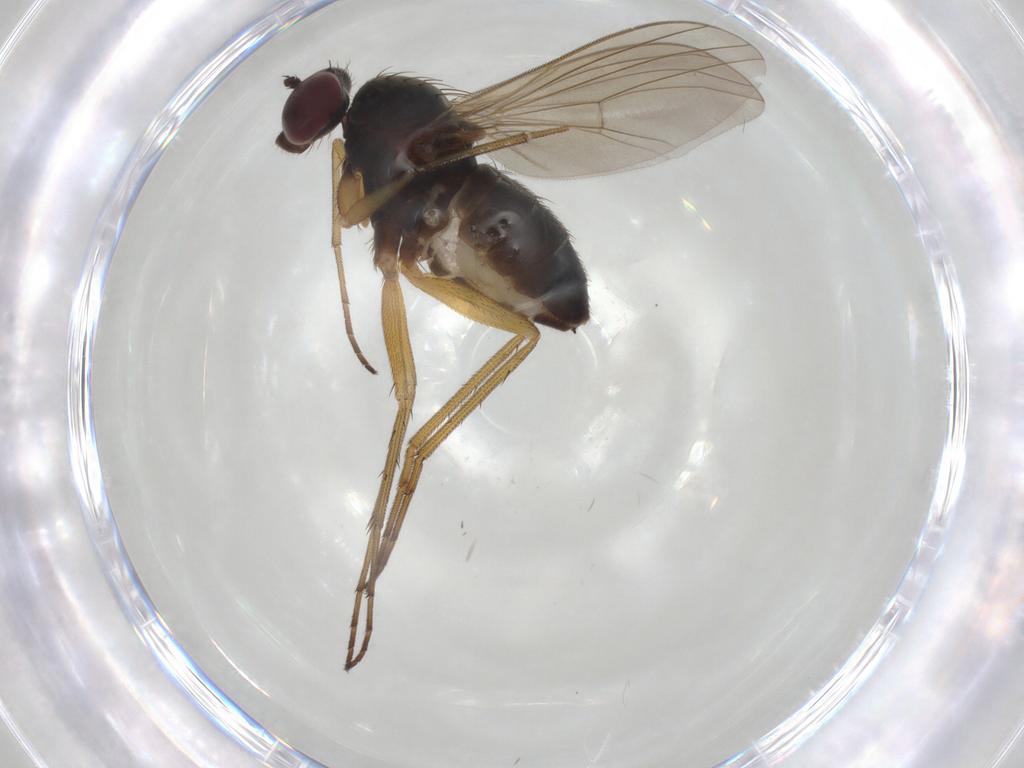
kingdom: Animalia
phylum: Arthropoda
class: Insecta
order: Diptera
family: Dolichopodidae
